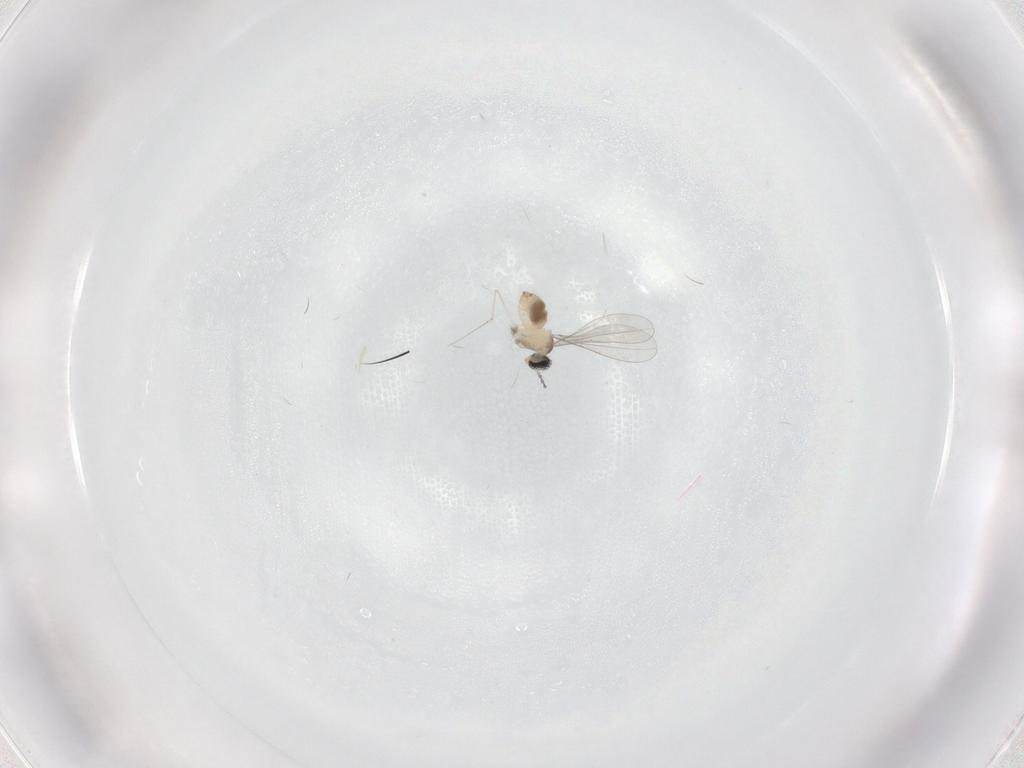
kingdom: Animalia
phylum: Arthropoda
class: Insecta
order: Diptera
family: Cecidomyiidae
